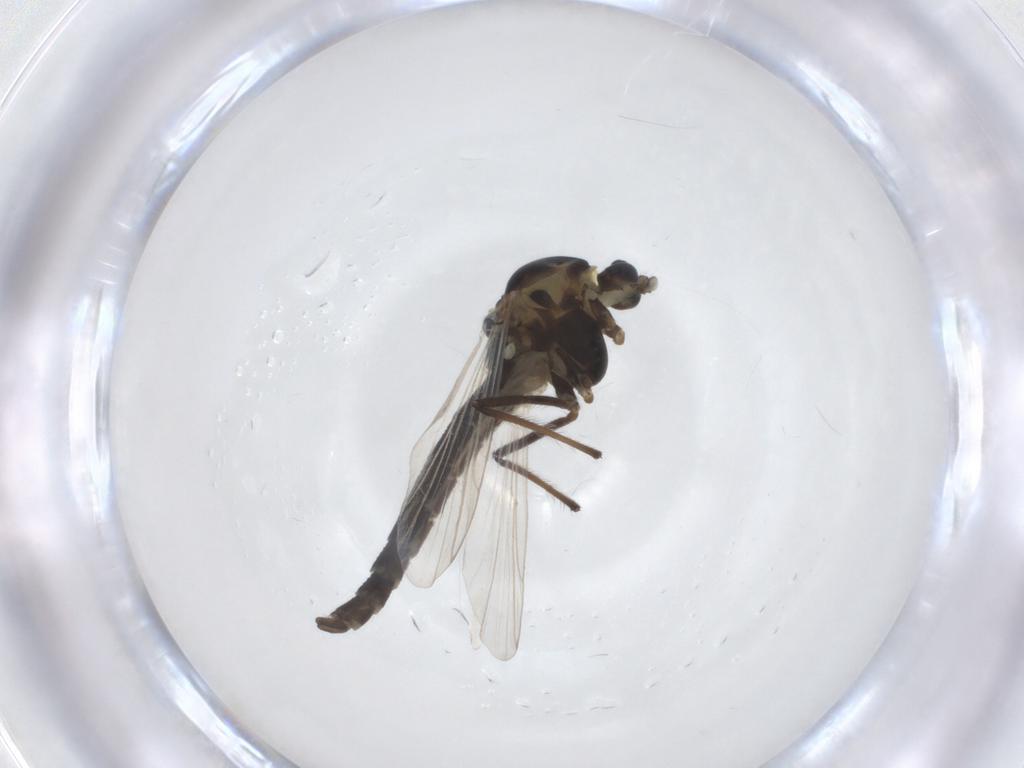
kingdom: Animalia
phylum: Arthropoda
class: Insecta
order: Diptera
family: Chironomidae
